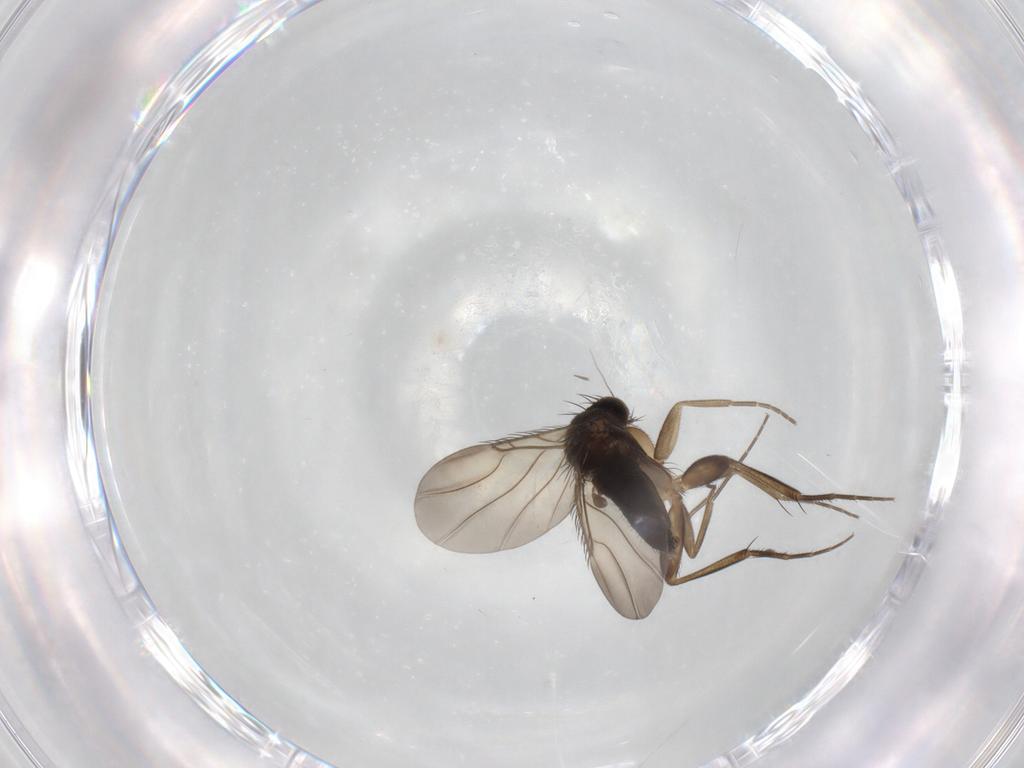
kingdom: Animalia
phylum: Arthropoda
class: Insecta
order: Diptera
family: Phoridae
